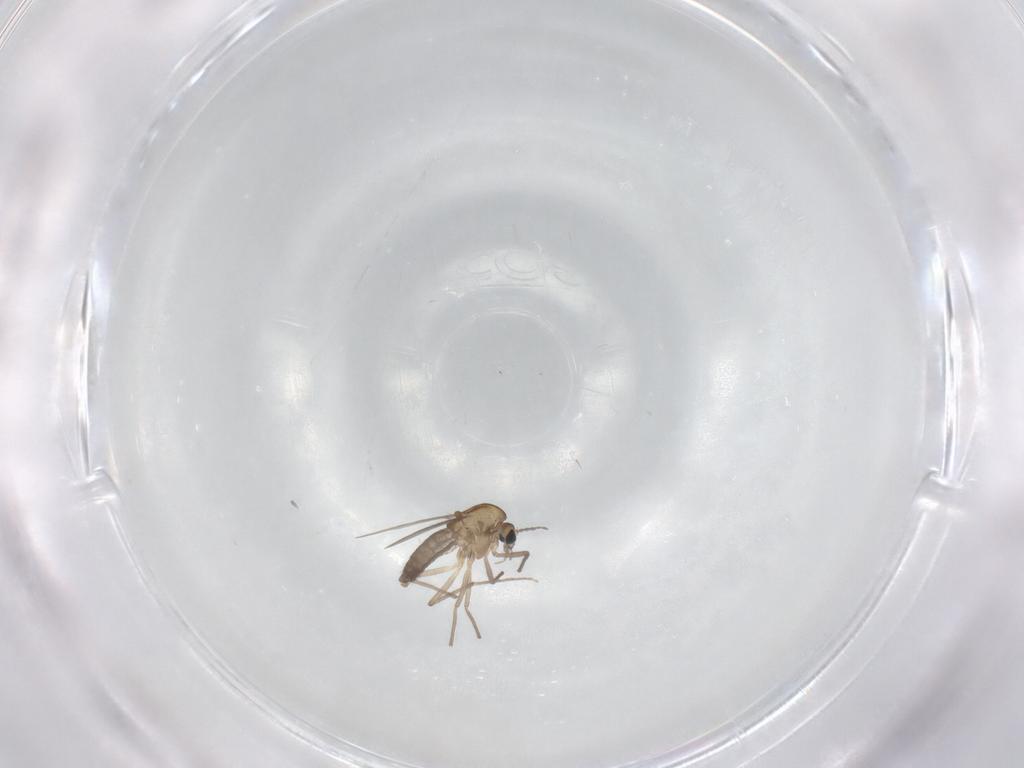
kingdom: Animalia
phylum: Arthropoda
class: Insecta
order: Diptera
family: Chironomidae
